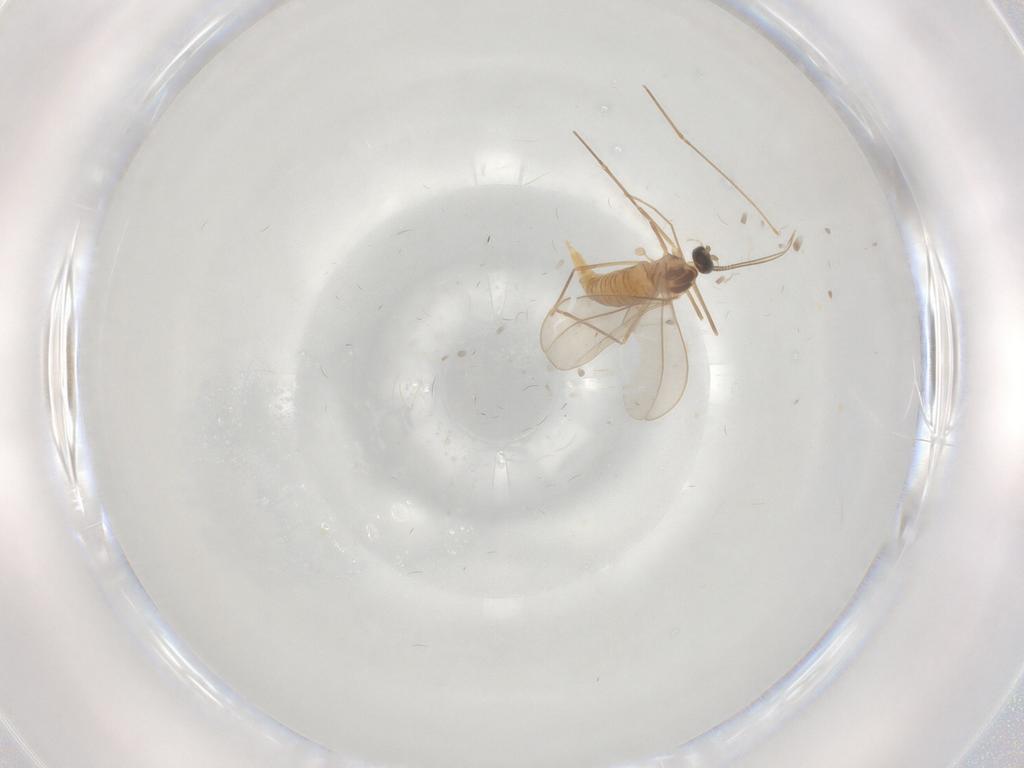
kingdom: Animalia
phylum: Arthropoda
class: Insecta
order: Diptera
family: Cecidomyiidae
